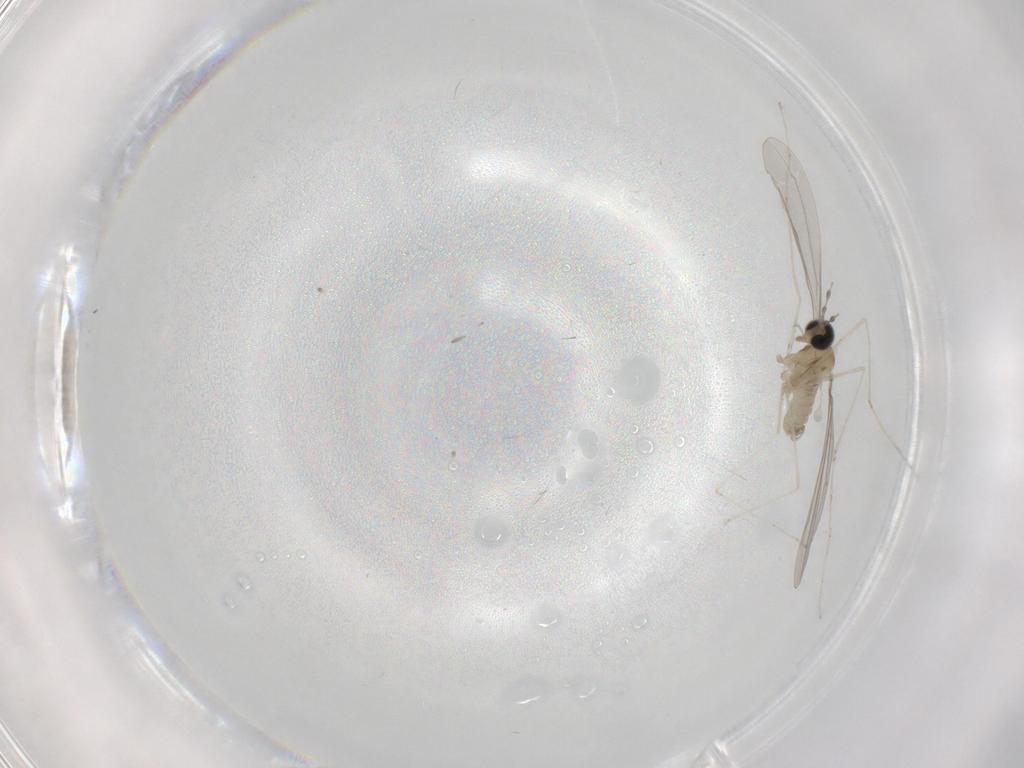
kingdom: Animalia
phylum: Arthropoda
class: Insecta
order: Diptera
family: Cecidomyiidae
